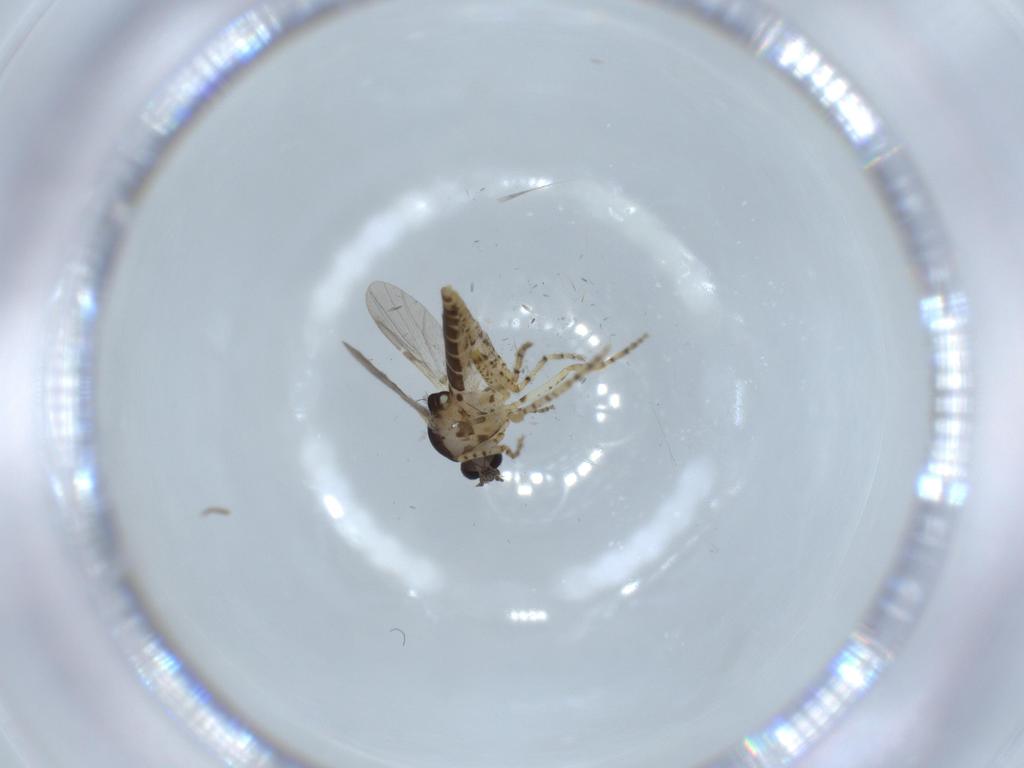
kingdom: Animalia
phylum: Arthropoda
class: Insecta
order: Diptera
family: Ceratopogonidae
